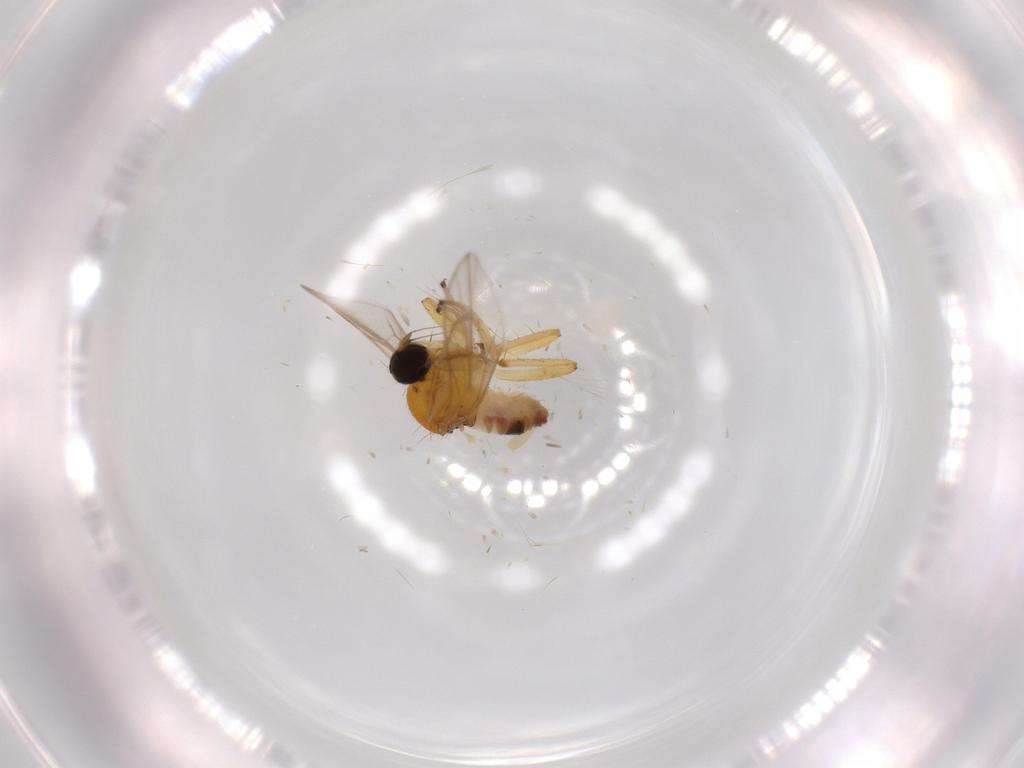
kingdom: Animalia
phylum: Arthropoda
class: Insecta
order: Diptera
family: Hybotidae
